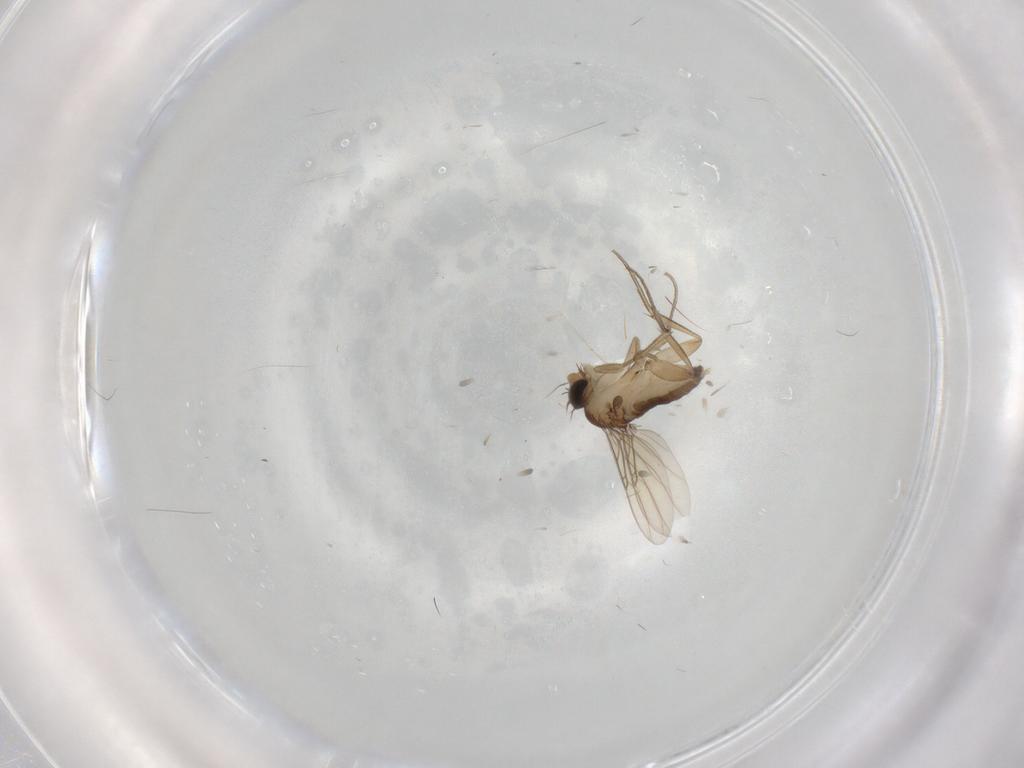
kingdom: Animalia
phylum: Arthropoda
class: Insecta
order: Diptera
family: Phoridae
